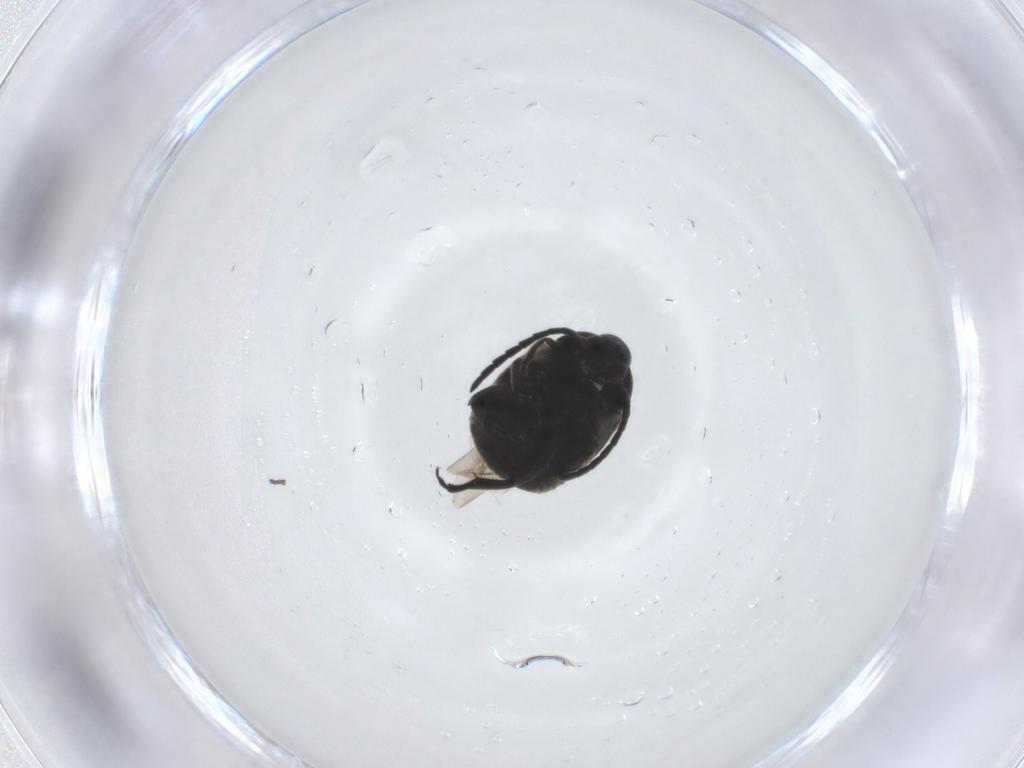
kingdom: Animalia
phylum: Arthropoda
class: Insecta
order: Coleoptera
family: Chrysomelidae
